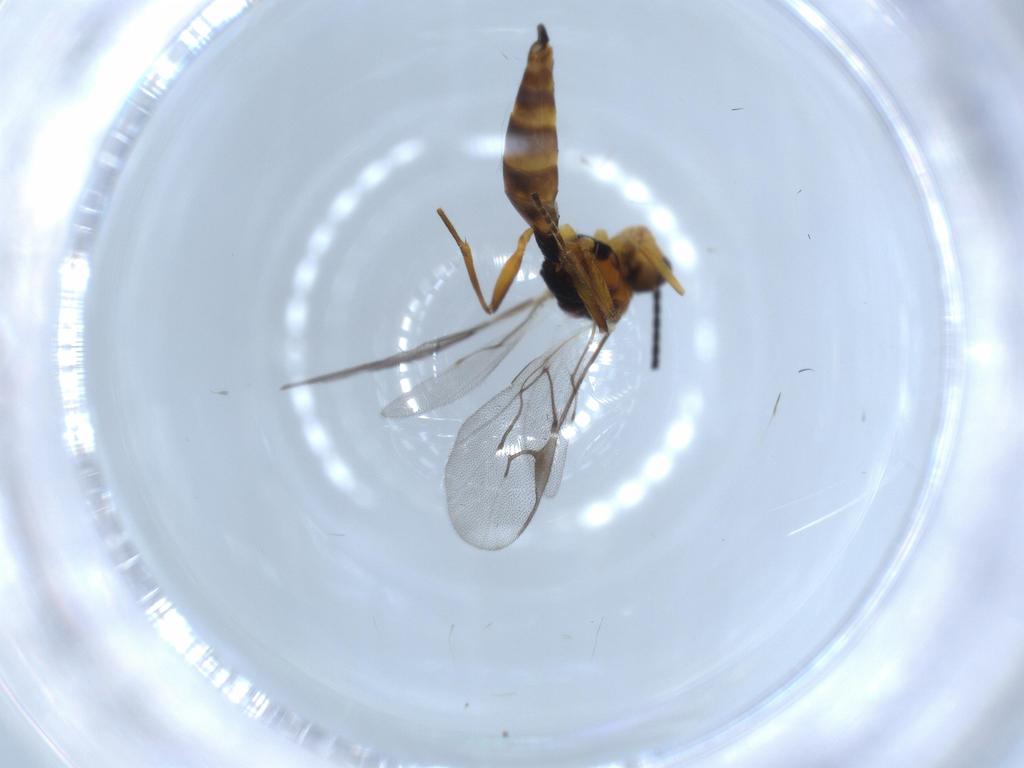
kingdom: Animalia
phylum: Arthropoda
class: Insecta
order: Hymenoptera
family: Braconidae
